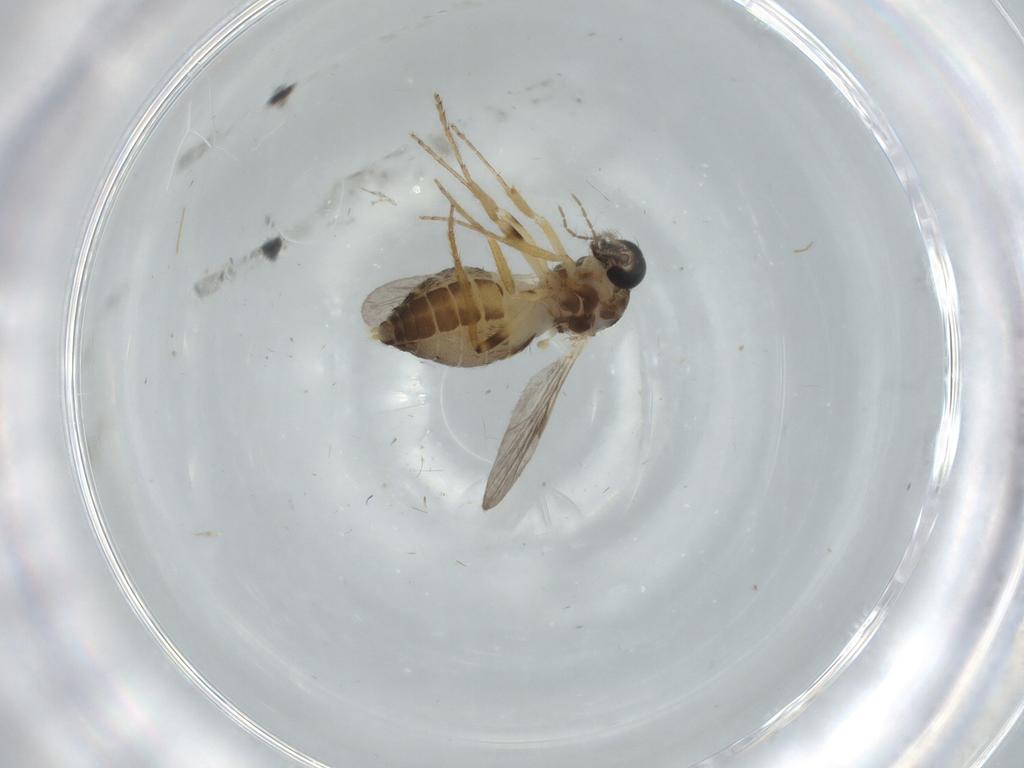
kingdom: Animalia
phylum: Arthropoda
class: Insecta
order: Diptera
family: Ceratopogonidae
